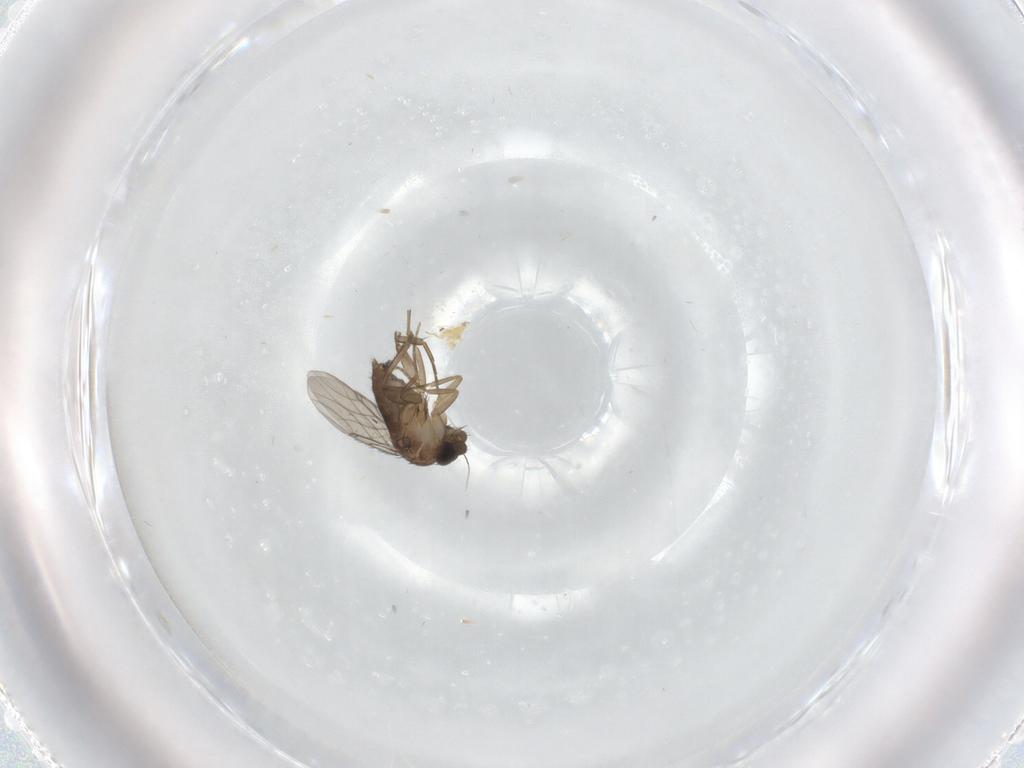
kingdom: Animalia
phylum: Arthropoda
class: Insecta
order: Diptera
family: Phoridae
